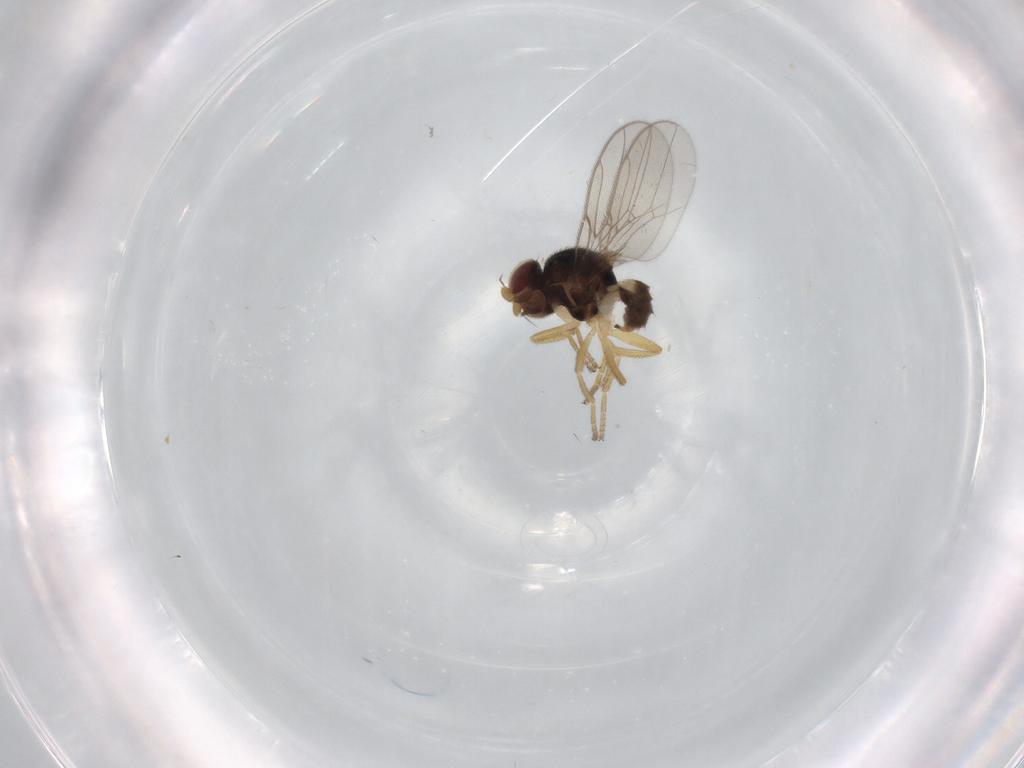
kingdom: Animalia
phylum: Arthropoda
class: Insecta
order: Diptera
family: Chloropidae
